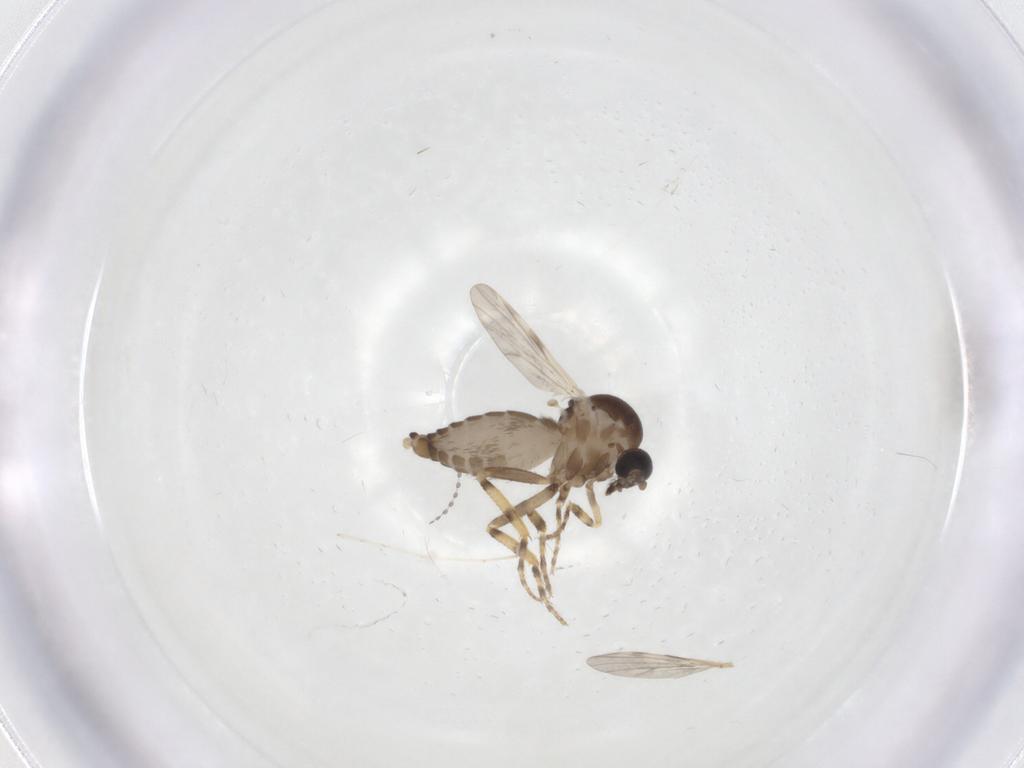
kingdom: Animalia
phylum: Arthropoda
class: Insecta
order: Diptera
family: Ceratopogonidae
